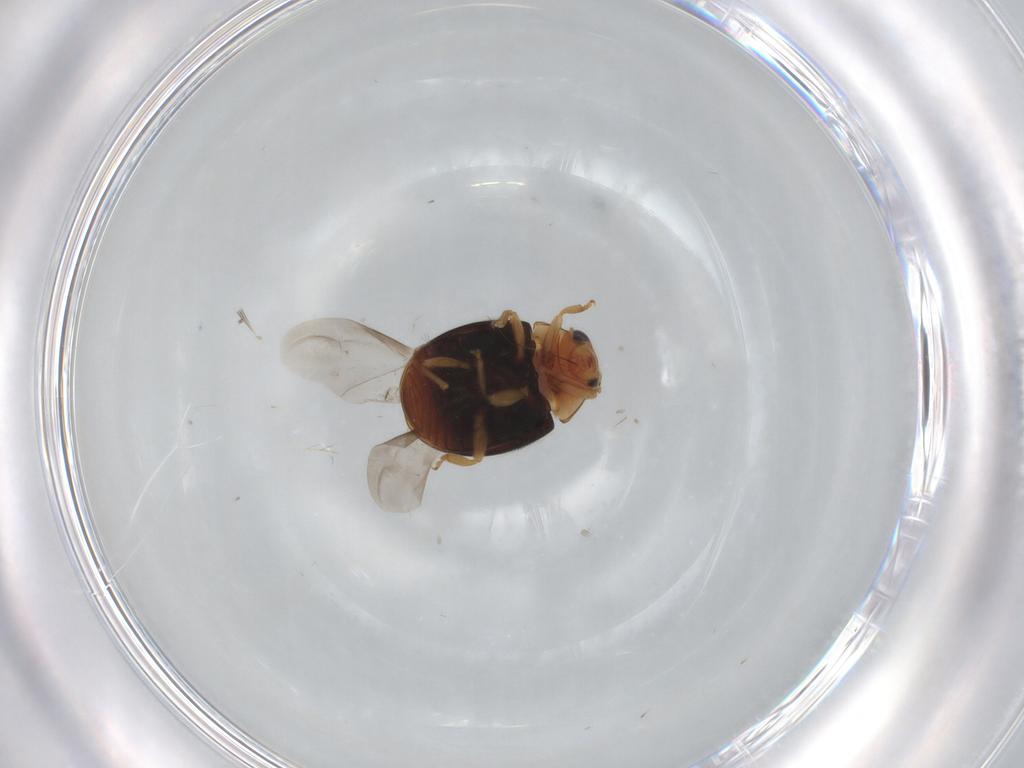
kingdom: Animalia
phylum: Arthropoda
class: Insecta
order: Coleoptera
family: Coccinellidae
